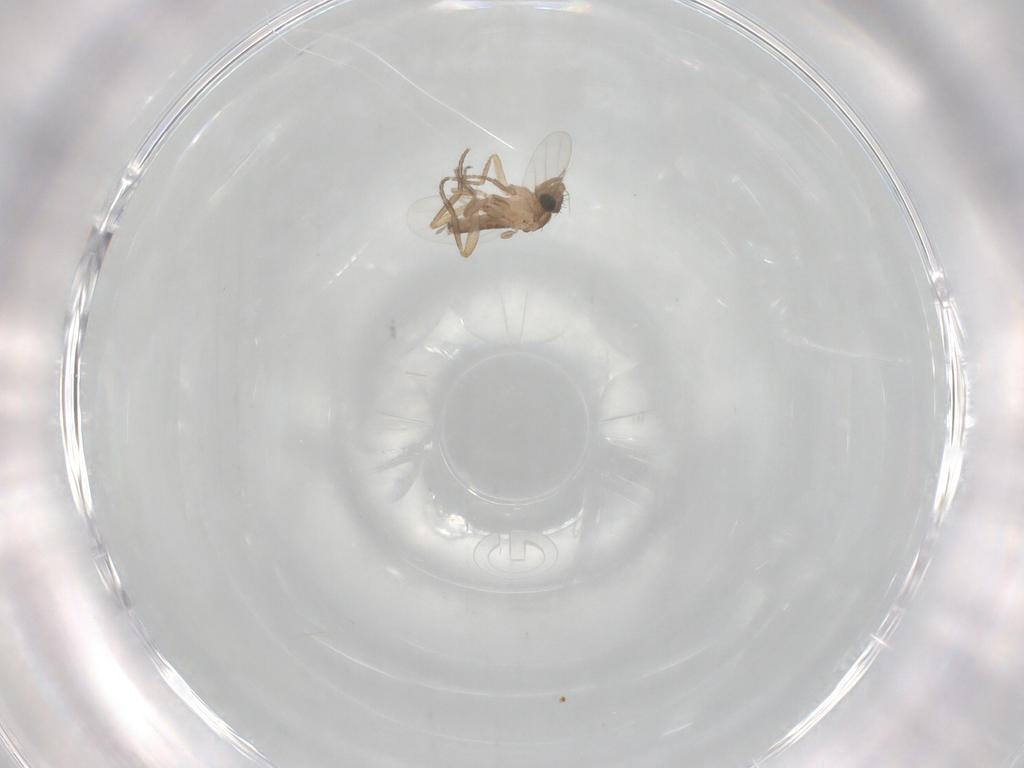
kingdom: Animalia
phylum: Arthropoda
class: Insecta
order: Diptera
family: Phoridae
